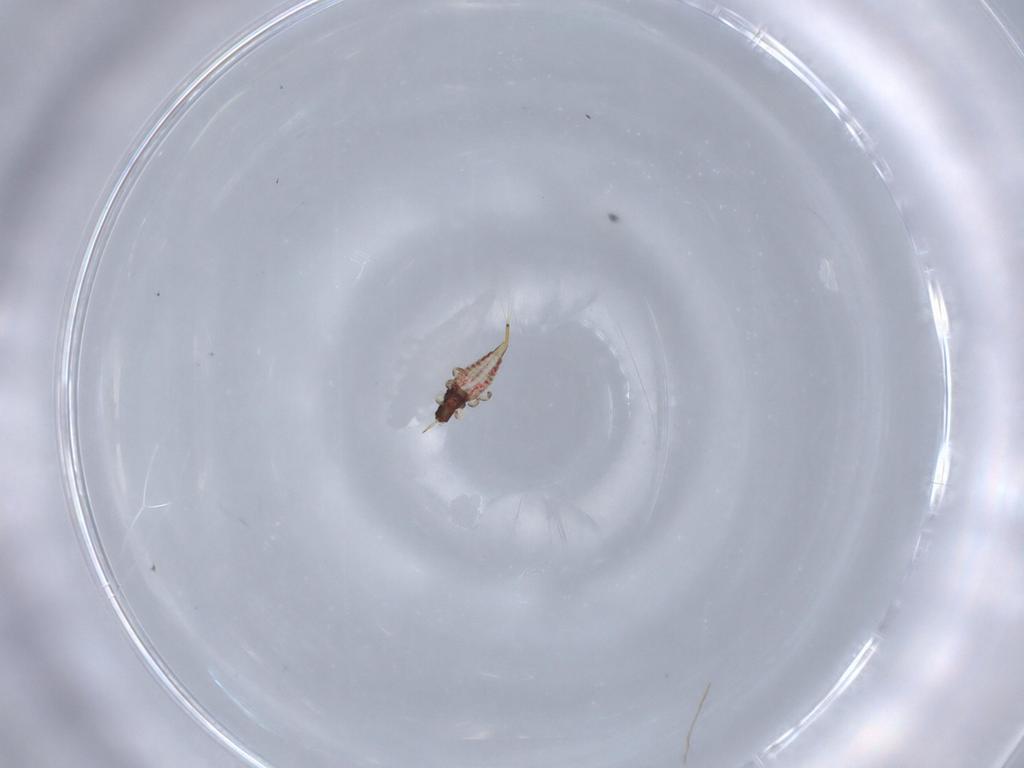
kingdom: Animalia
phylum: Arthropoda
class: Insecta
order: Thysanoptera
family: Phlaeothripidae
